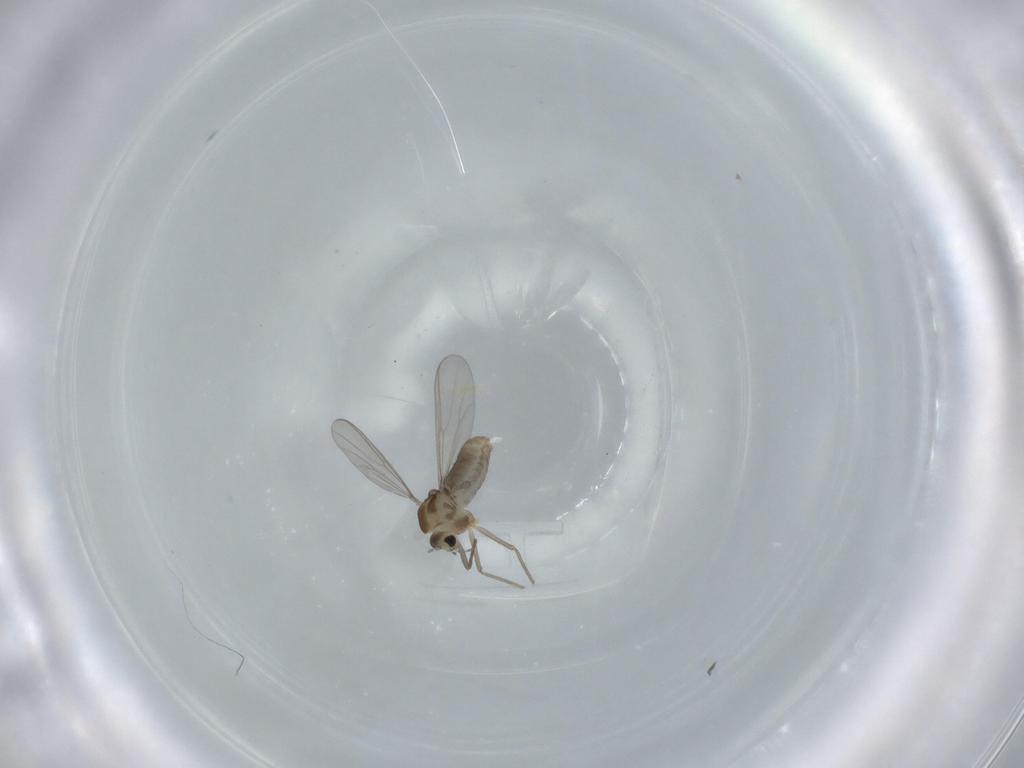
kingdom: Animalia
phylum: Arthropoda
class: Insecta
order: Diptera
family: Chironomidae
